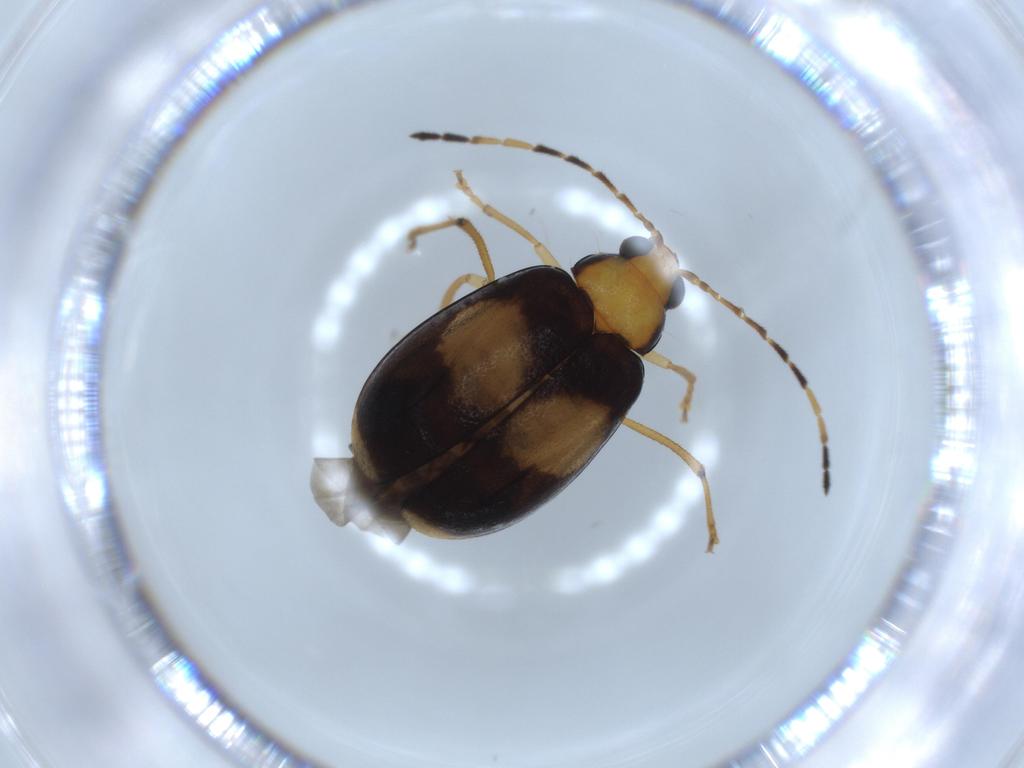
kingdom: Animalia
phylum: Arthropoda
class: Insecta
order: Coleoptera
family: Chrysomelidae
